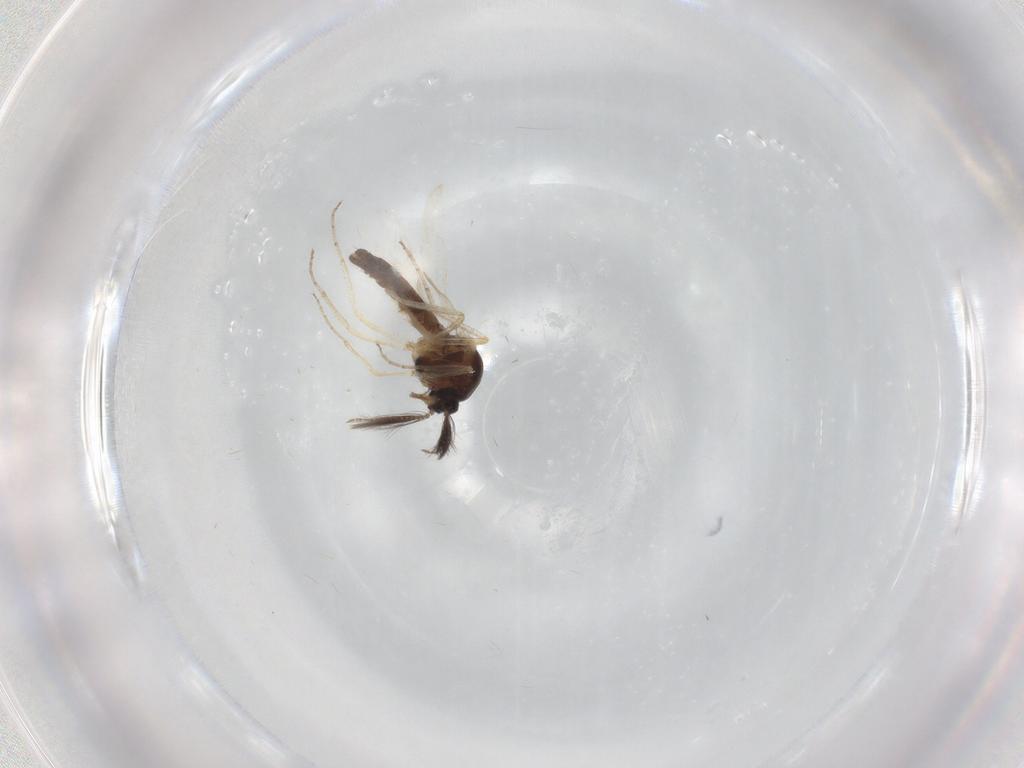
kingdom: Animalia
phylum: Arthropoda
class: Insecta
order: Diptera
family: Ceratopogonidae
